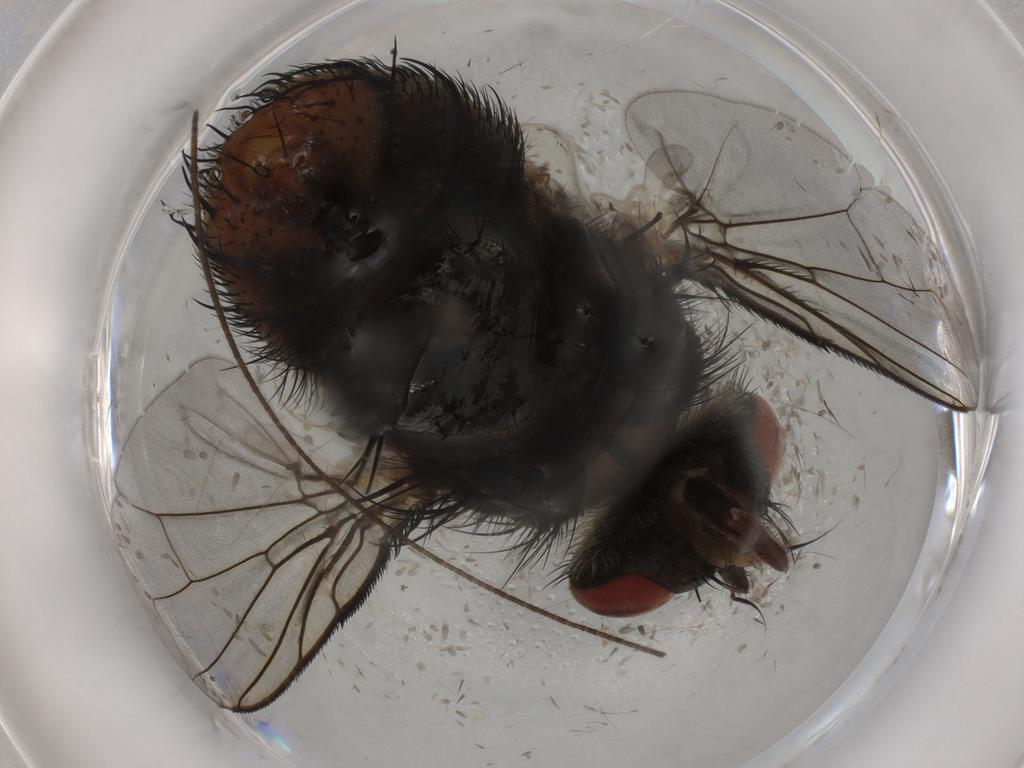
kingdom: Animalia
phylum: Arthropoda
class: Insecta
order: Diptera
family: Tachinidae
